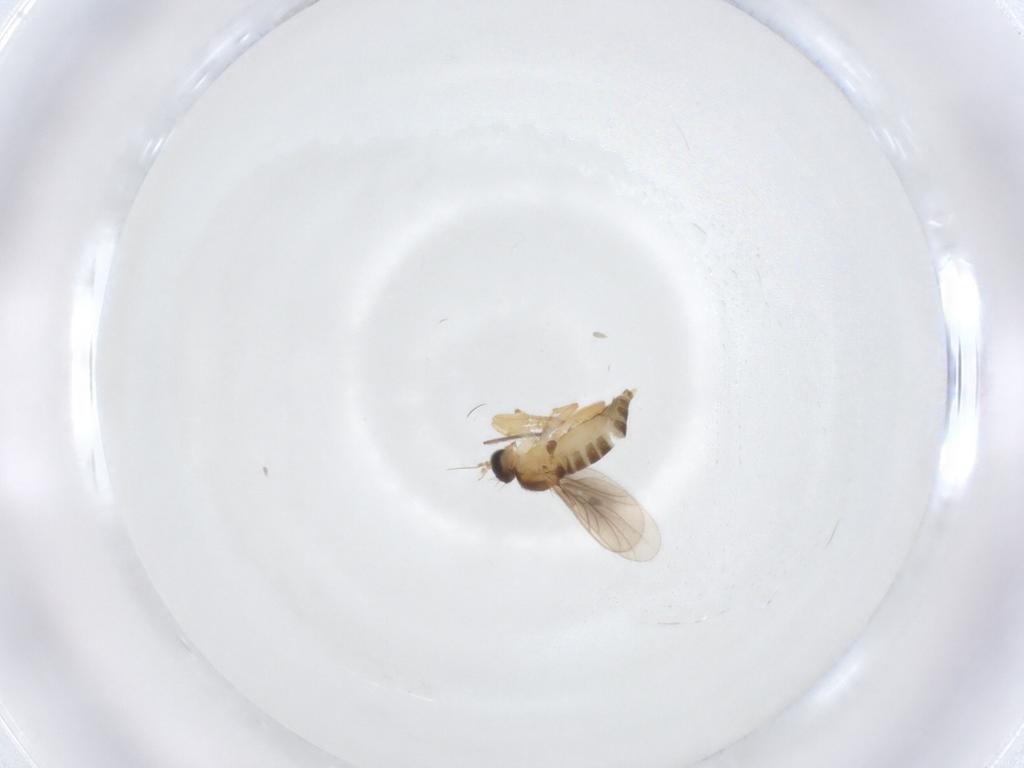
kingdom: Animalia
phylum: Arthropoda
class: Insecta
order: Diptera
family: Hybotidae
